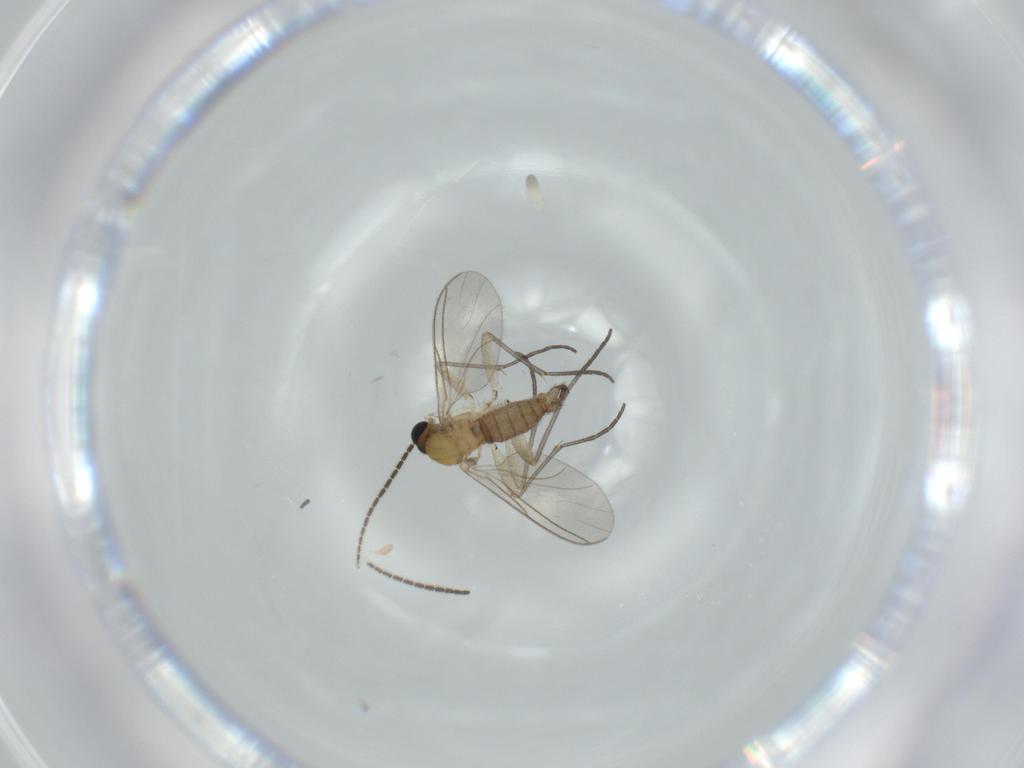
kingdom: Animalia
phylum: Arthropoda
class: Insecta
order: Diptera
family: Sciaridae
